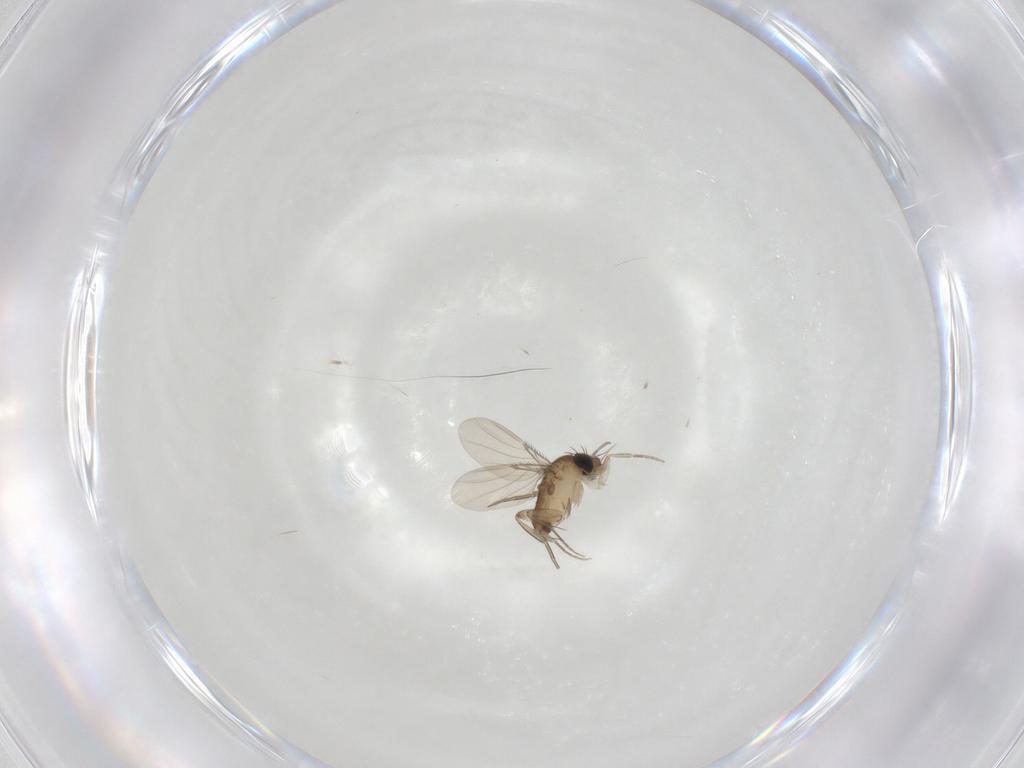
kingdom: Animalia
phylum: Arthropoda
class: Insecta
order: Diptera
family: Phoridae
